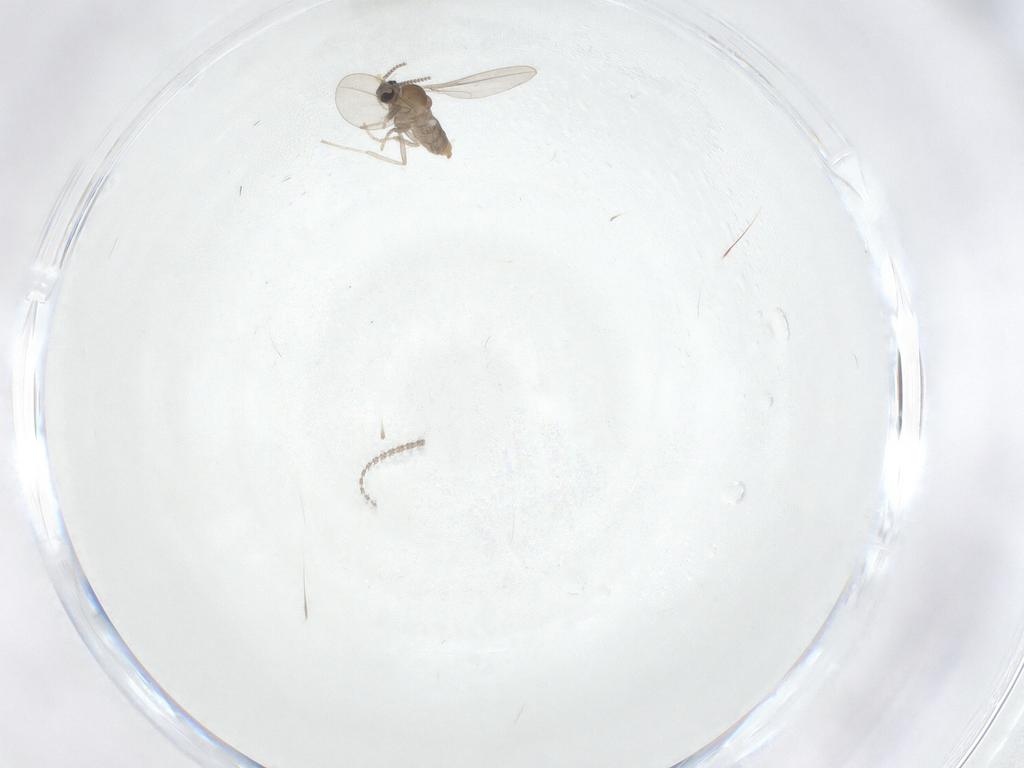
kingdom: Animalia
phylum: Arthropoda
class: Insecta
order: Diptera
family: Cecidomyiidae
